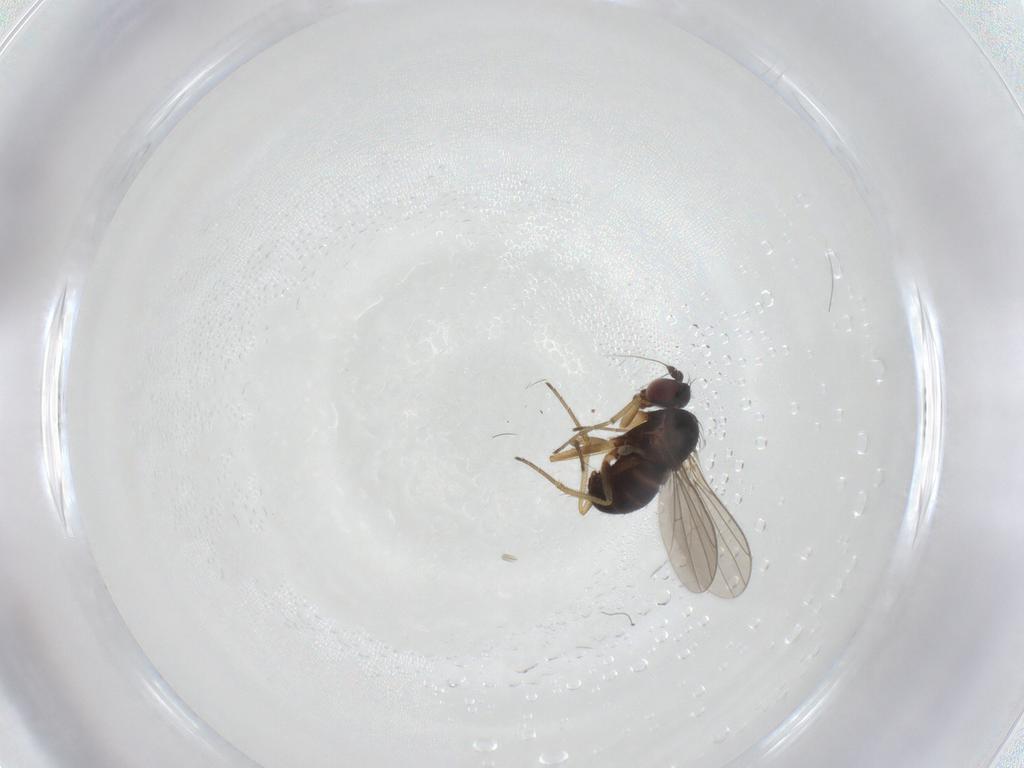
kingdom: Animalia
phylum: Arthropoda
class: Insecta
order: Diptera
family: Dolichopodidae
